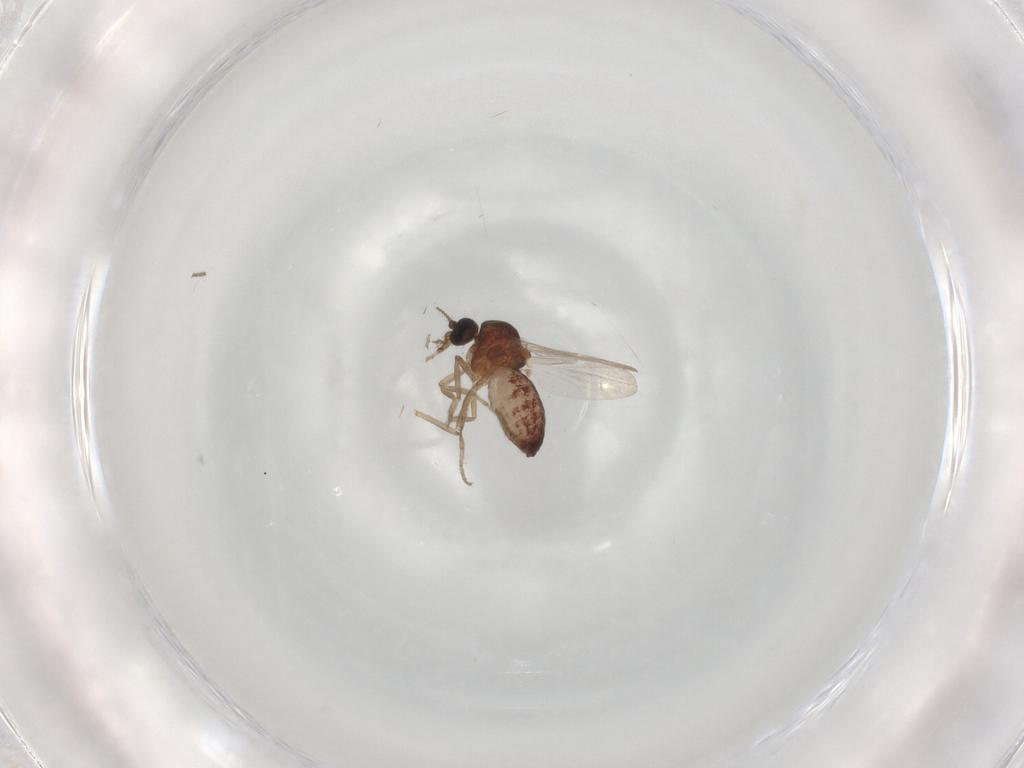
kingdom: Animalia
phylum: Arthropoda
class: Insecta
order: Diptera
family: Ceratopogonidae
